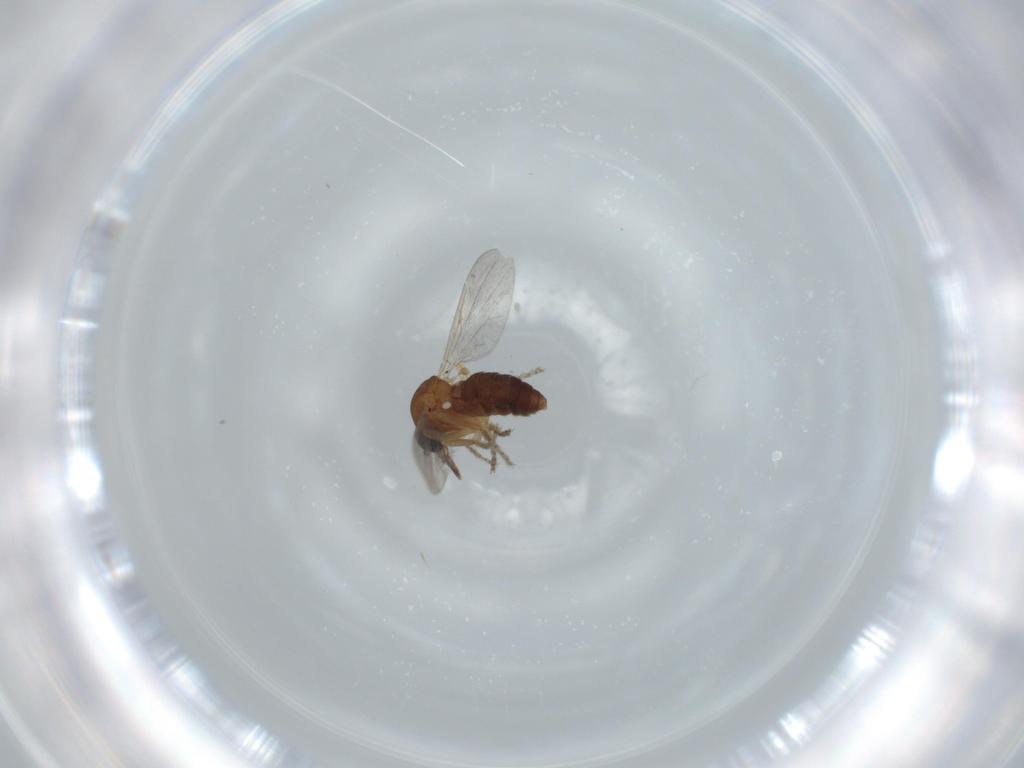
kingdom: Animalia
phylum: Arthropoda
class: Insecta
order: Diptera
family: Ceratopogonidae
